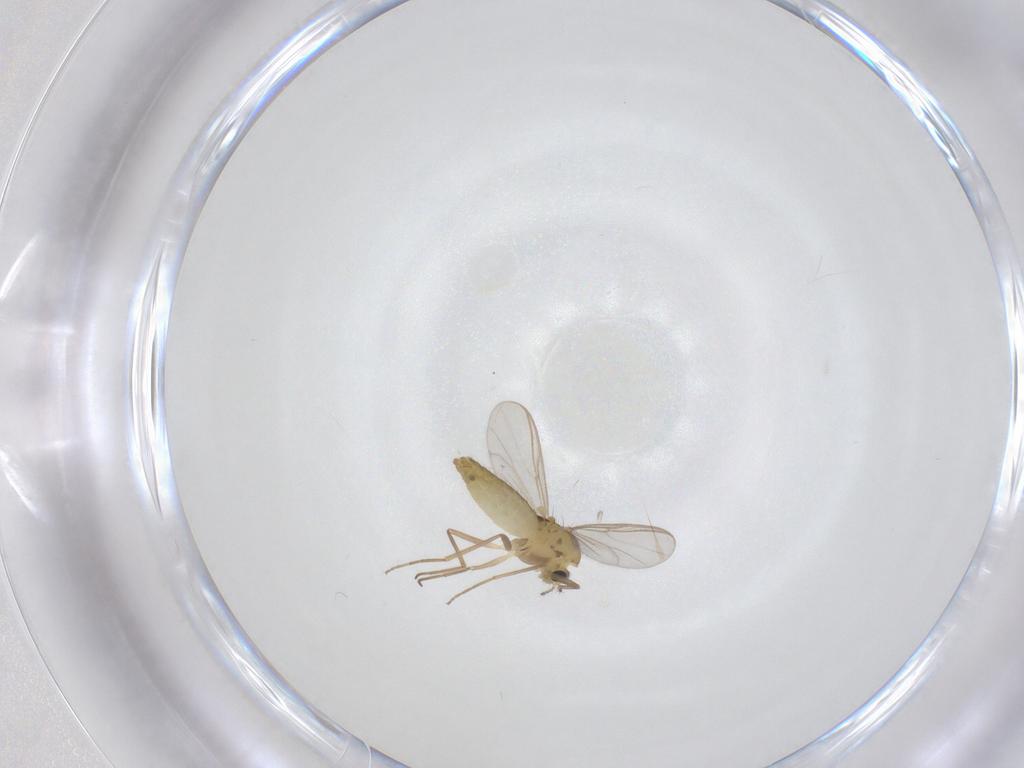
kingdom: Animalia
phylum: Arthropoda
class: Insecta
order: Diptera
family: Chironomidae
